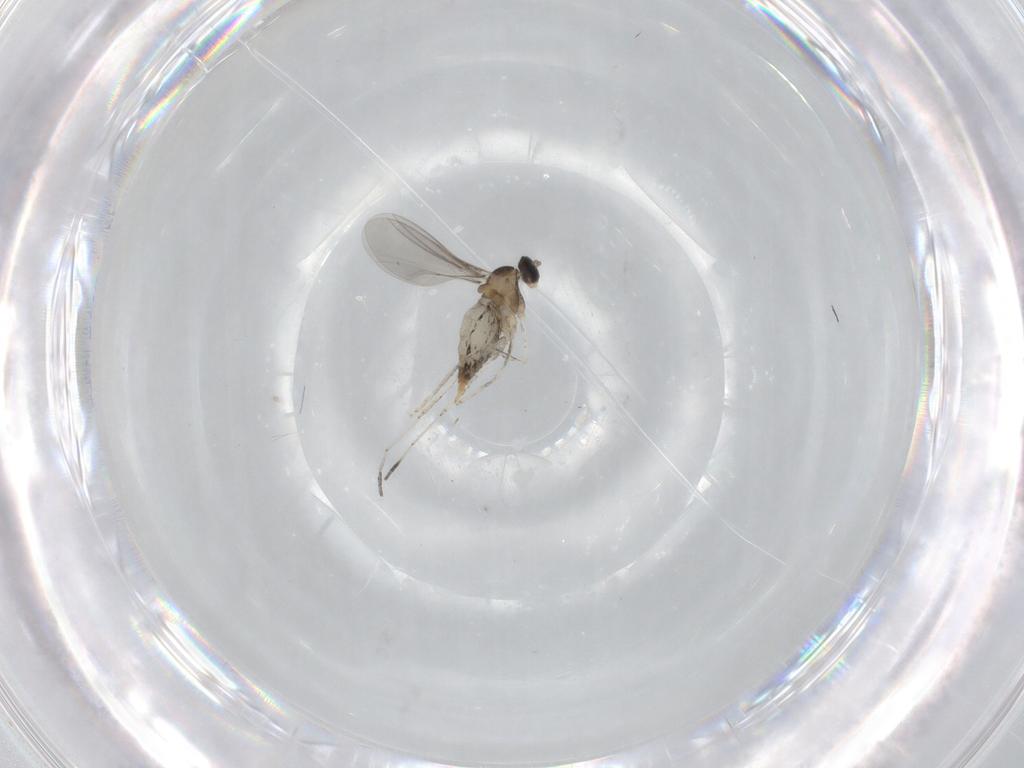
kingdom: Animalia
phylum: Arthropoda
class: Insecta
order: Diptera
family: Cecidomyiidae
